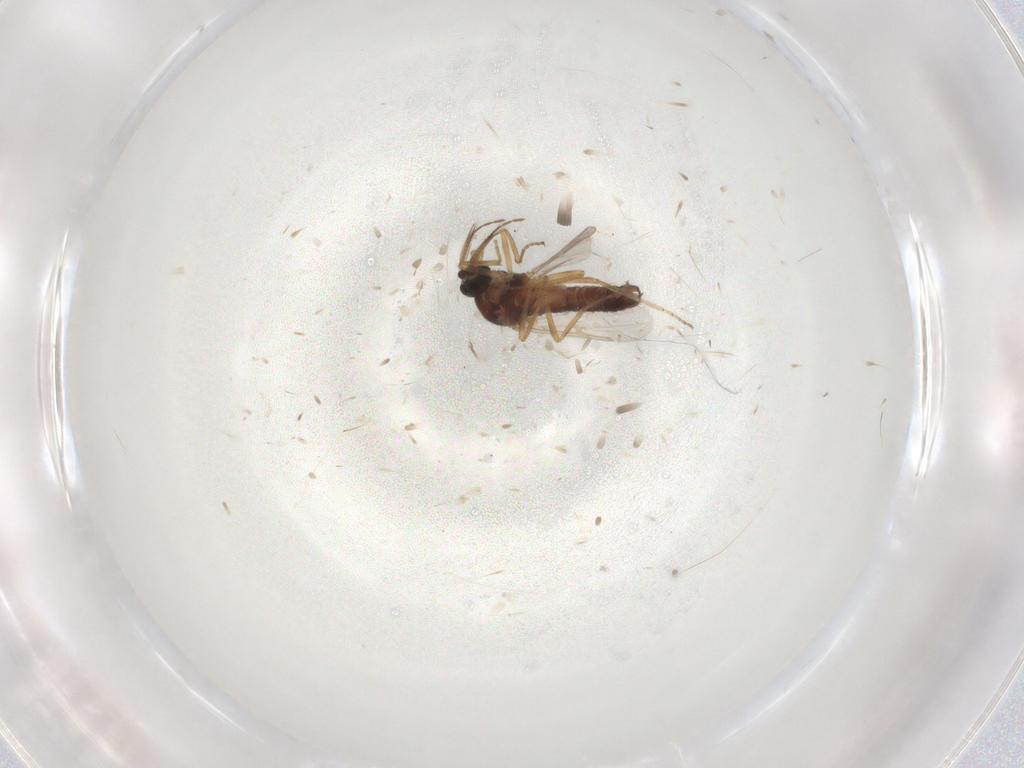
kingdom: Animalia
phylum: Arthropoda
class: Insecta
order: Diptera
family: Ceratopogonidae
